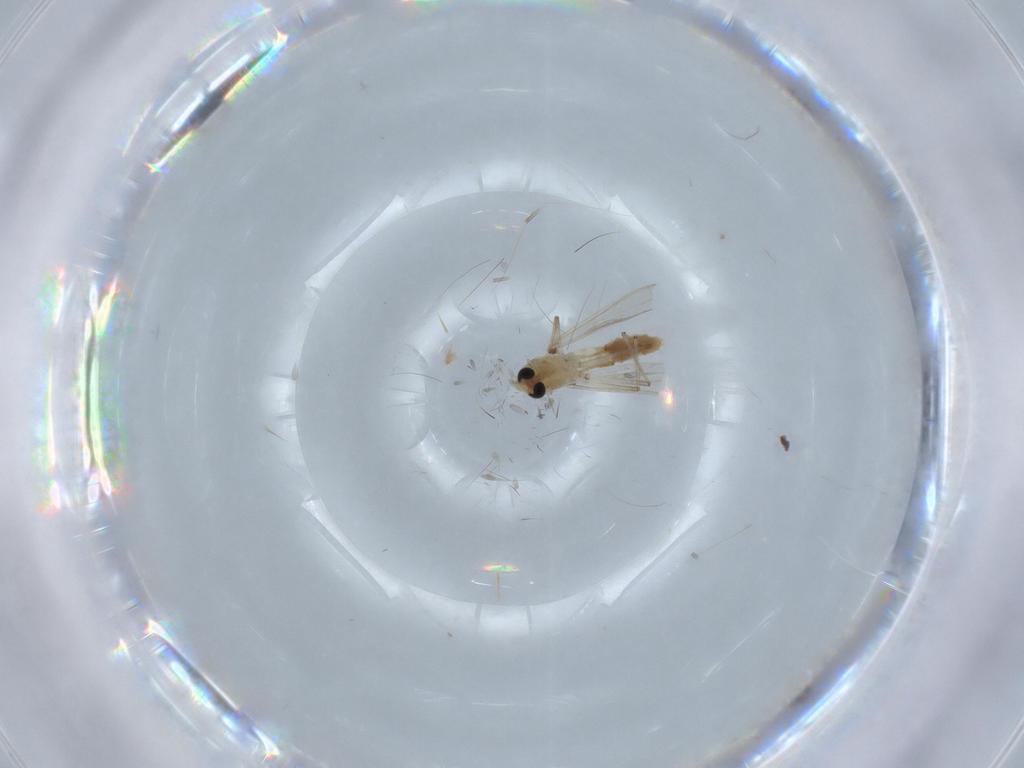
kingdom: Animalia
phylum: Arthropoda
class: Insecta
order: Diptera
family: Chironomidae
